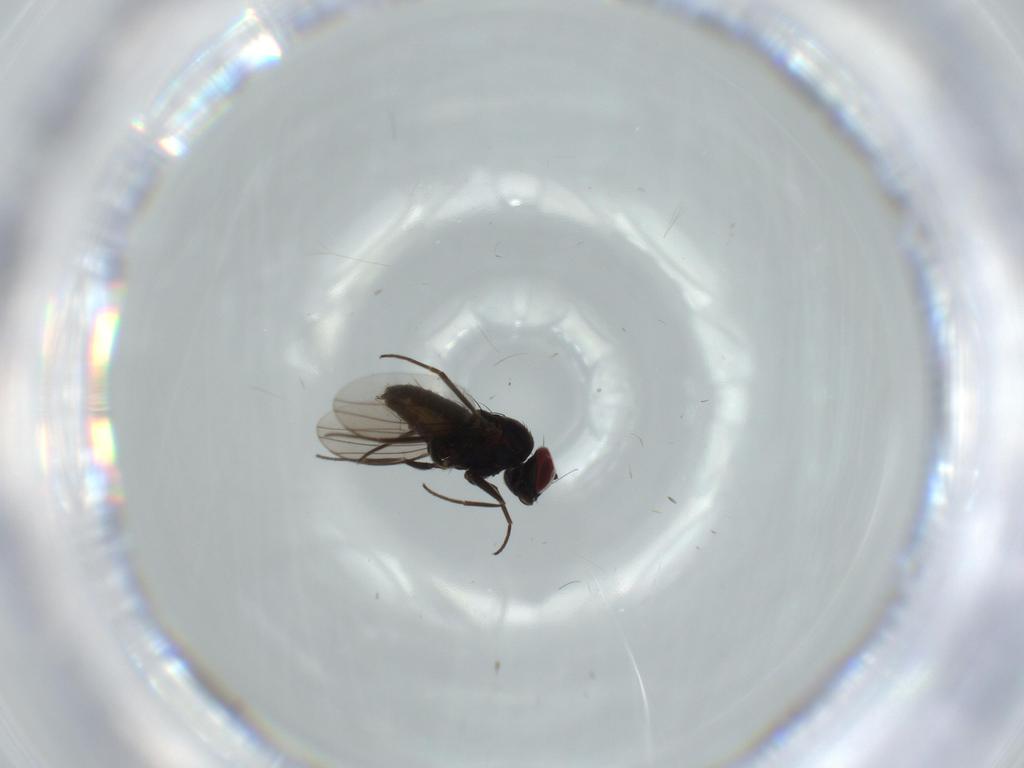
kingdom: Animalia
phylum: Arthropoda
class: Insecta
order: Diptera
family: Dolichopodidae
